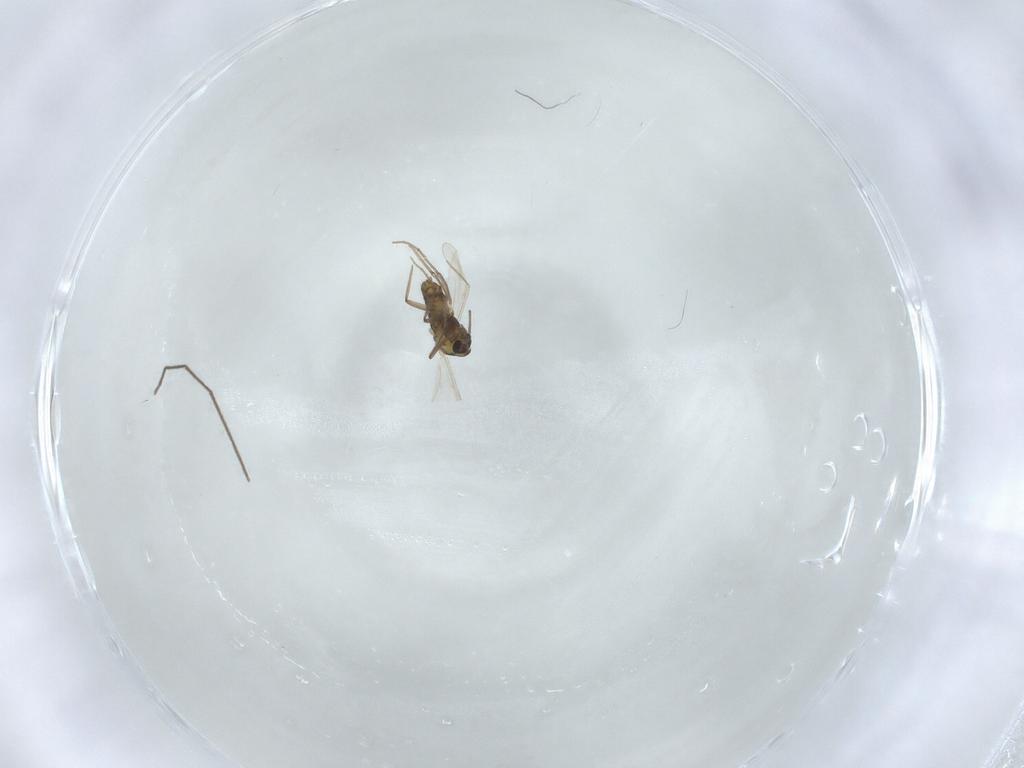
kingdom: Animalia
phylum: Arthropoda
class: Insecta
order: Diptera
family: Chironomidae
